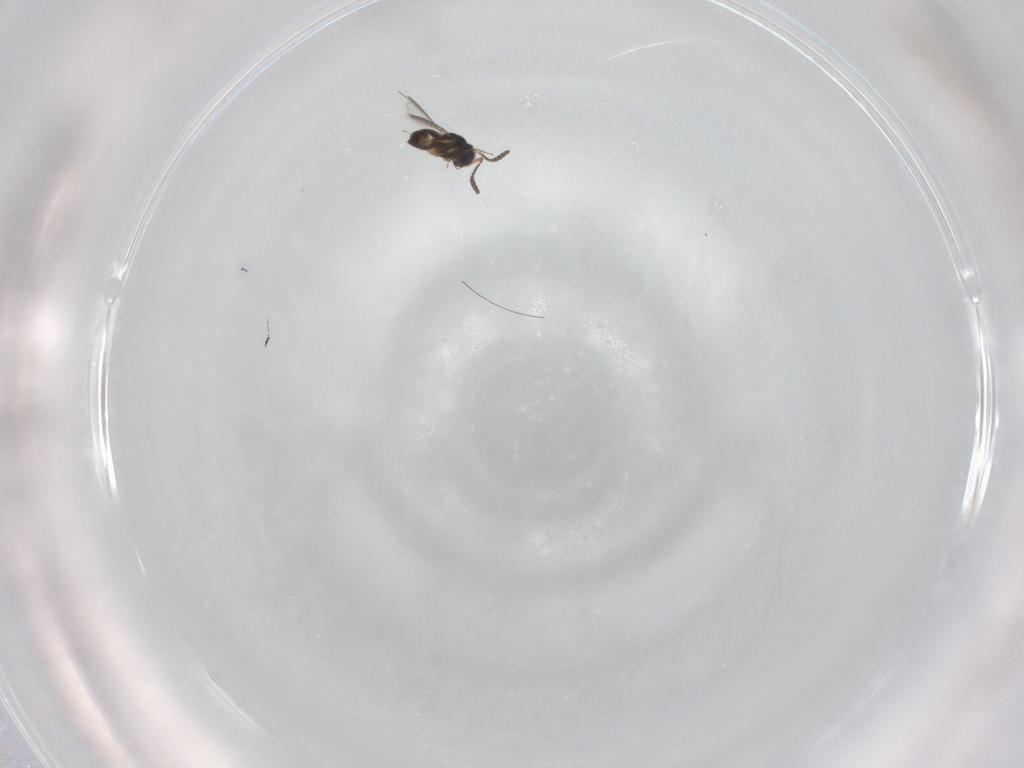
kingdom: Animalia
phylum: Arthropoda
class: Insecta
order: Hymenoptera
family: Scelionidae
